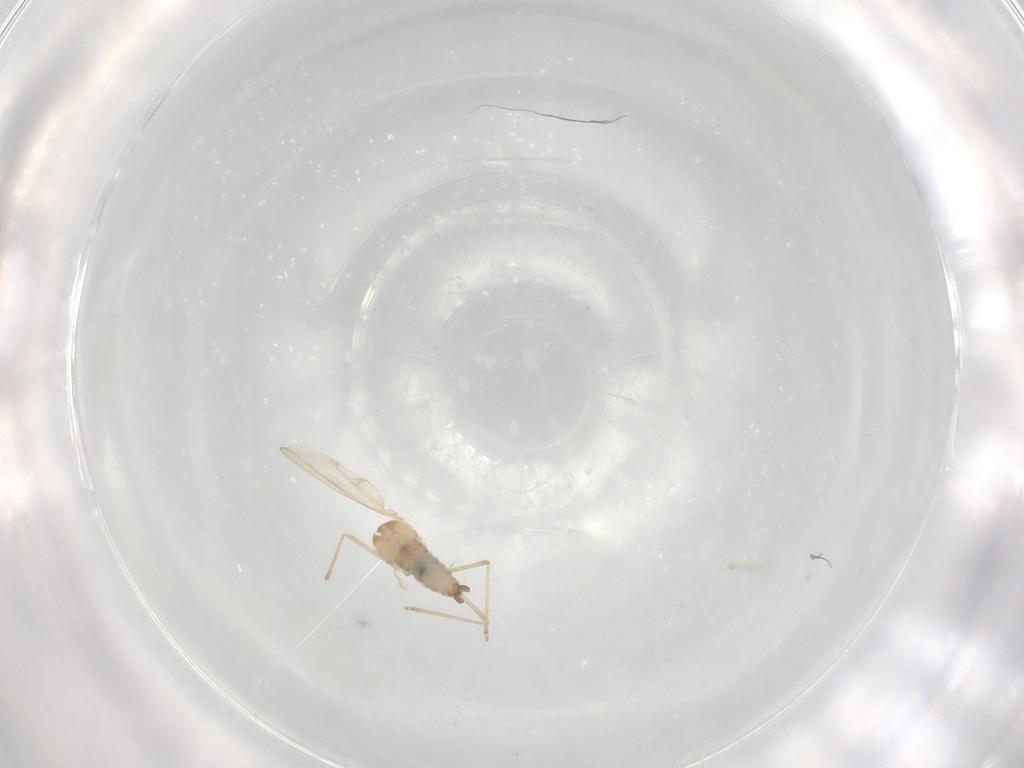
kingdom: Animalia
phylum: Arthropoda
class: Insecta
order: Diptera
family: Cecidomyiidae
